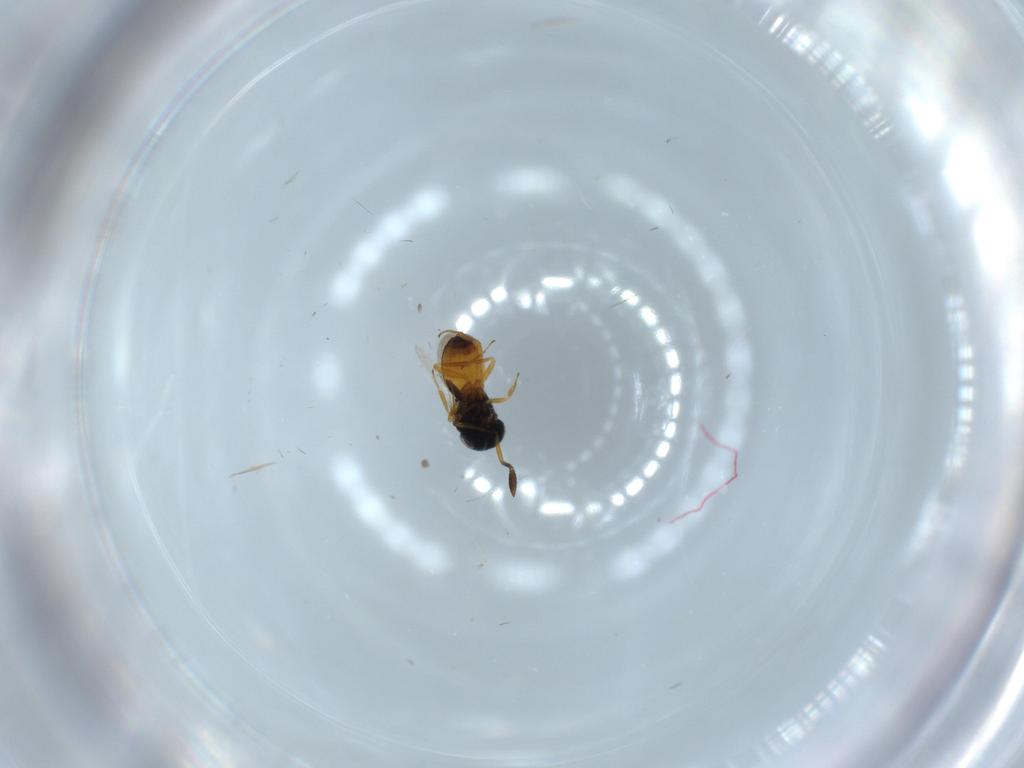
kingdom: Animalia
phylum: Arthropoda
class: Insecta
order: Hymenoptera
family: Scelionidae
